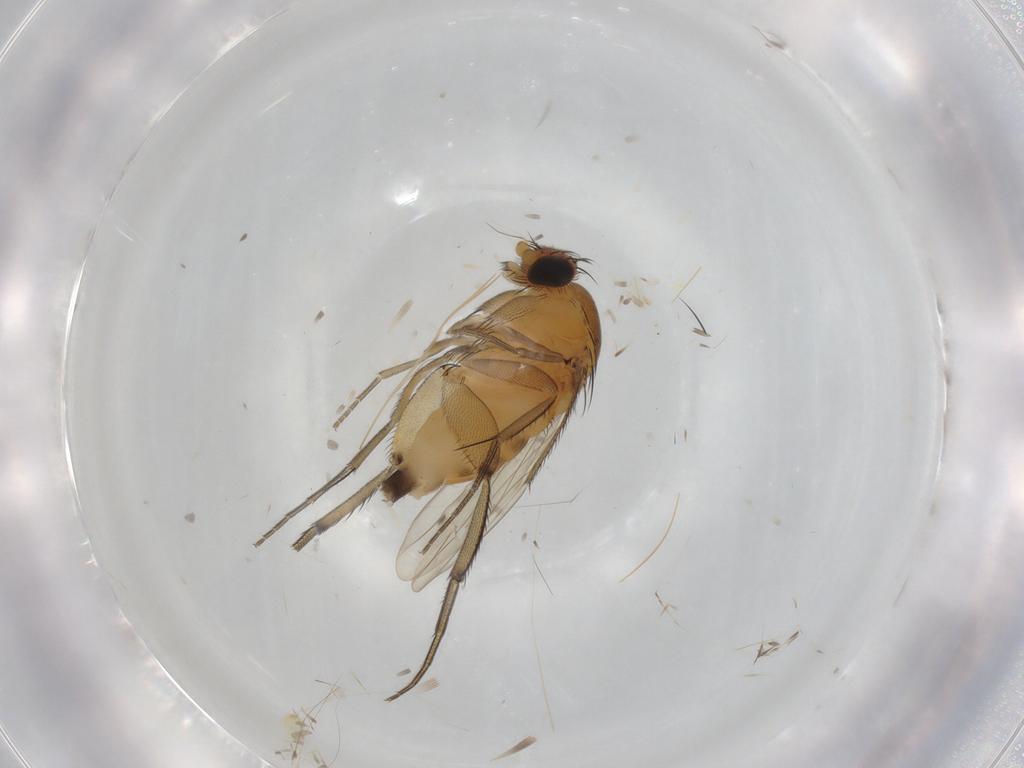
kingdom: Animalia
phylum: Arthropoda
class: Insecta
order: Diptera
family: Phoridae
